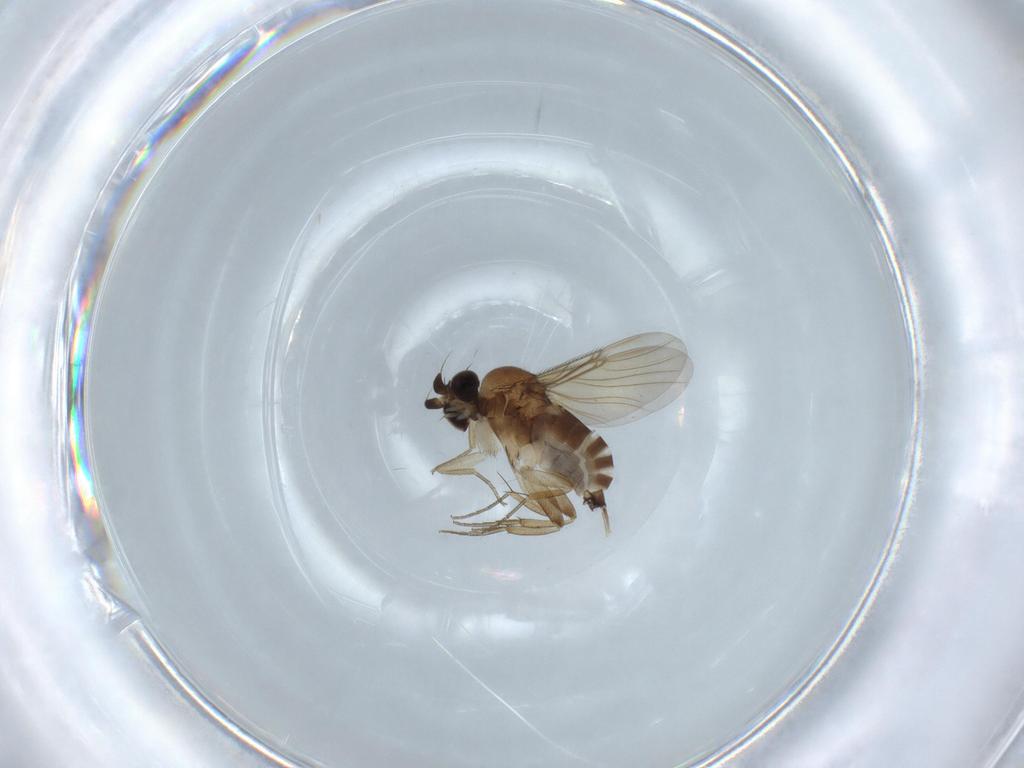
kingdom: Animalia
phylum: Arthropoda
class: Insecta
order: Diptera
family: Phoridae
